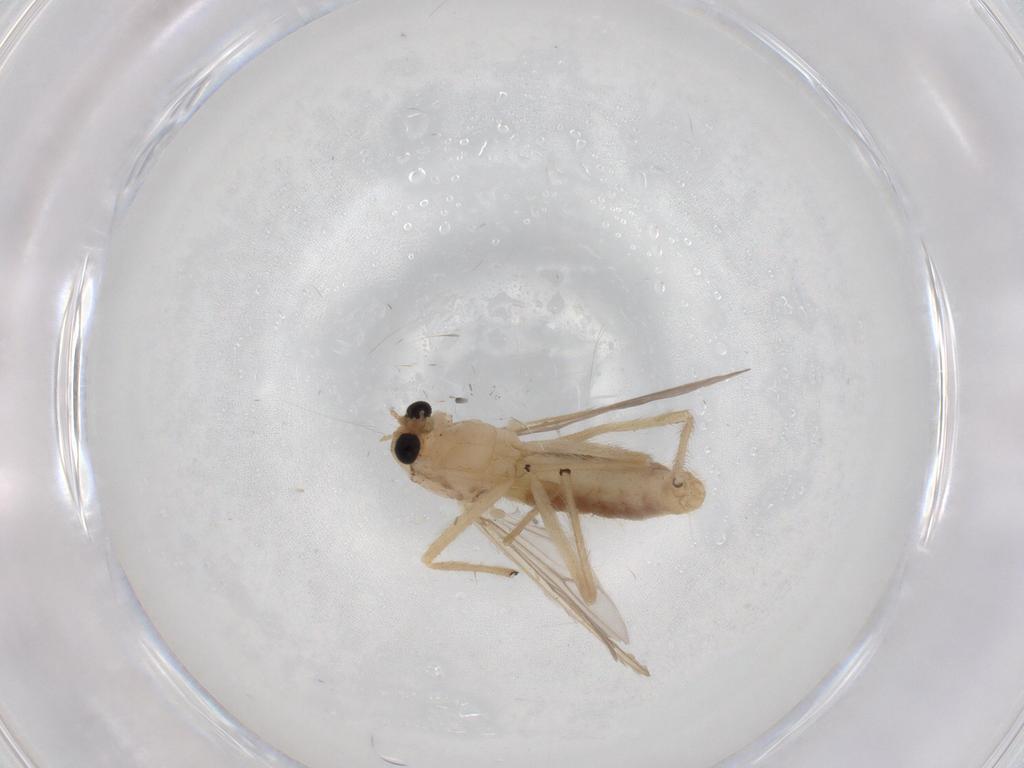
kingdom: Animalia
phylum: Arthropoda
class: Insecta
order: Diptera
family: Chironomidae
